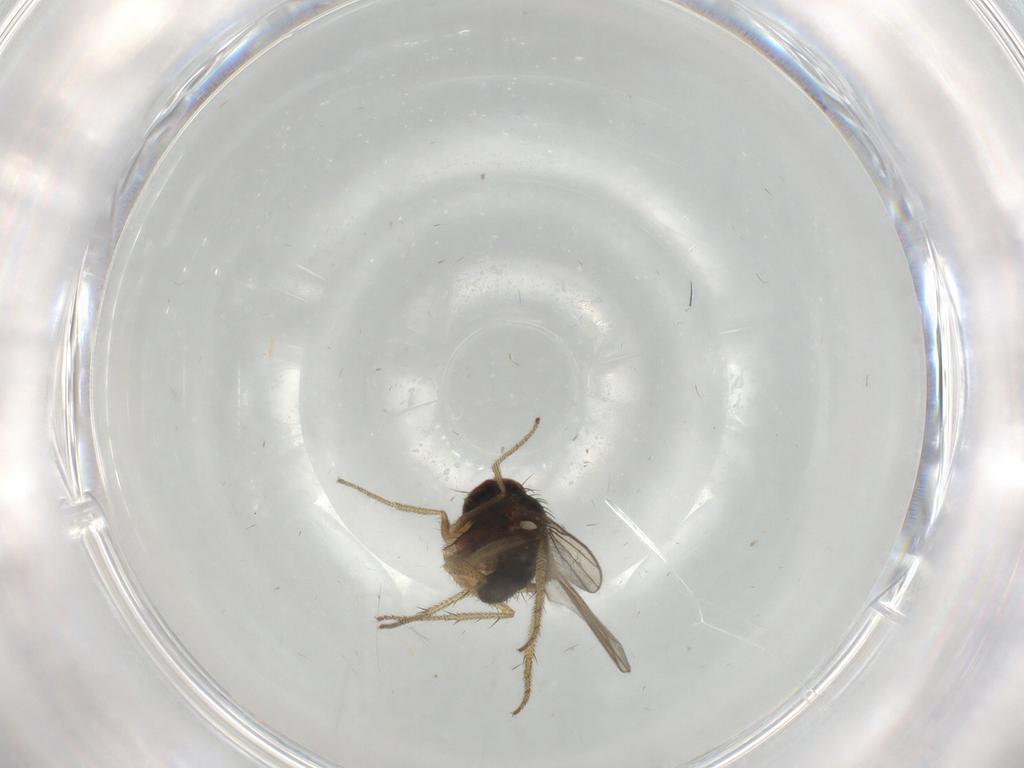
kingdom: Animalia
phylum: Arthropoda
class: Insecta
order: Diptera
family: Dolichopodidae
